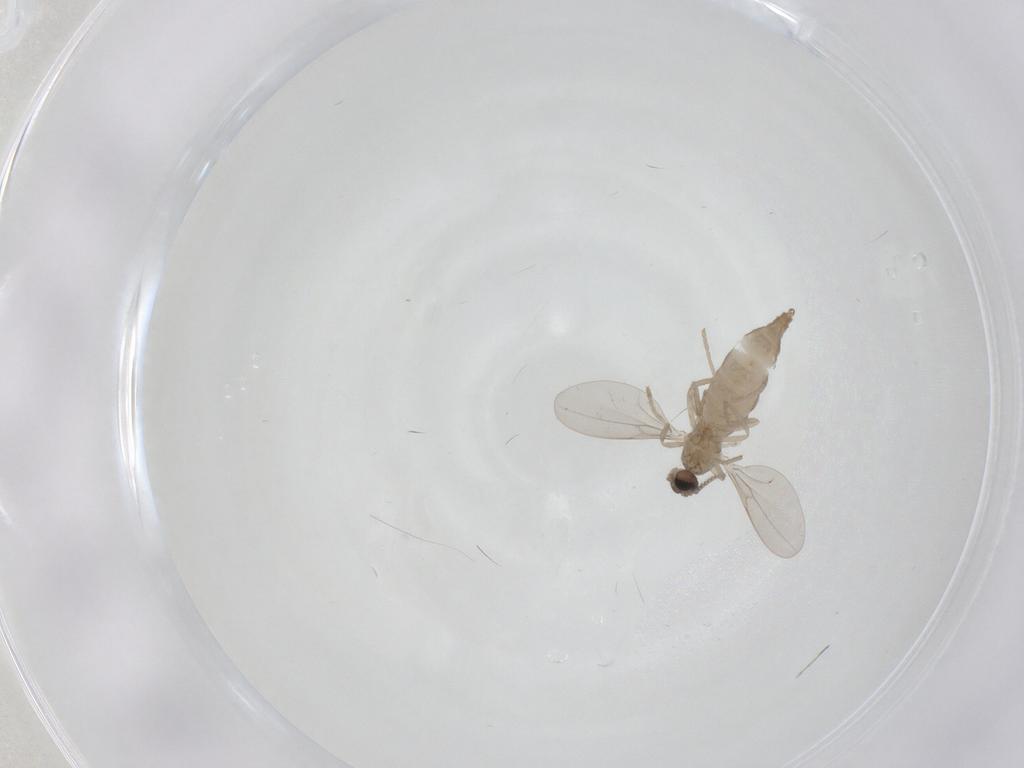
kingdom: Animalia
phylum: Arthropoda
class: Insecta
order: Diptera
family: Cecidomyiidae
